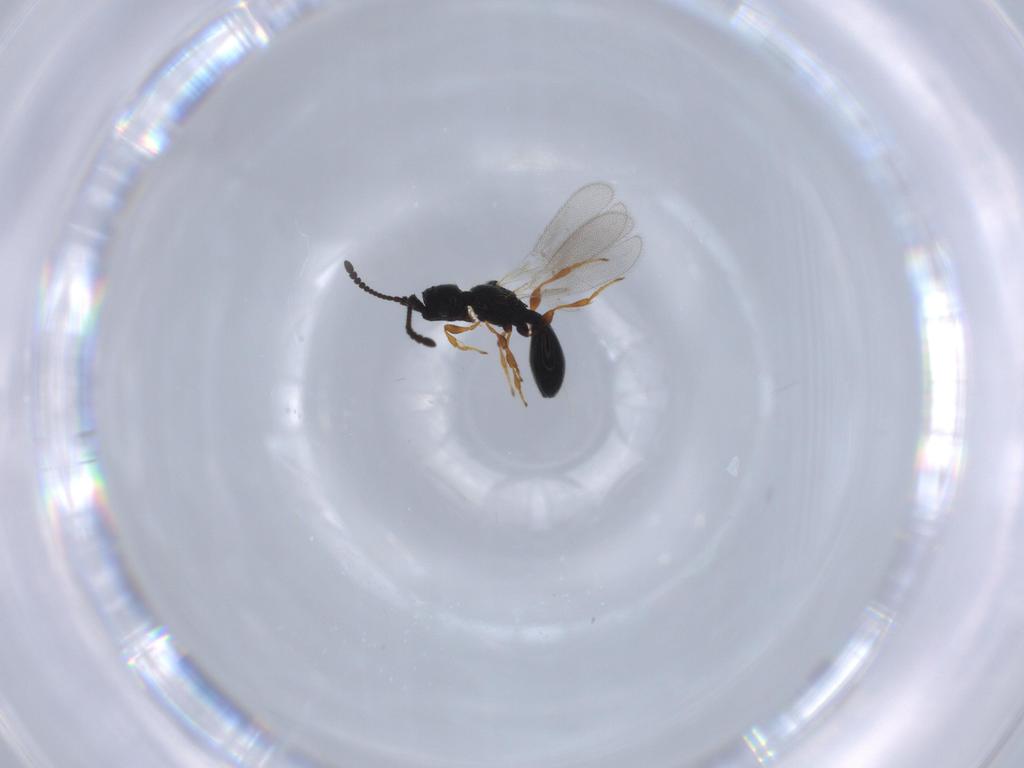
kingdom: Animalia
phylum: Arthropoda
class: Insecta
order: Hymenoptera
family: Diapriidae
